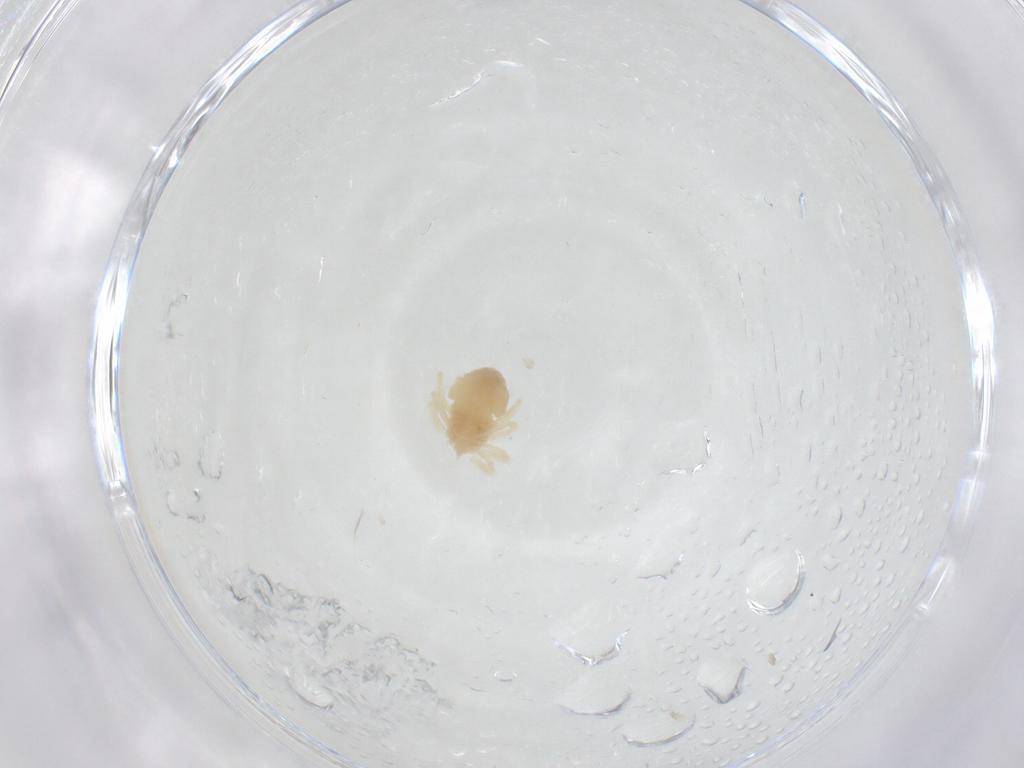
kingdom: Animalia
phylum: Arthropoda
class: Arachnida
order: Trombidiformes
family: Anystidae
